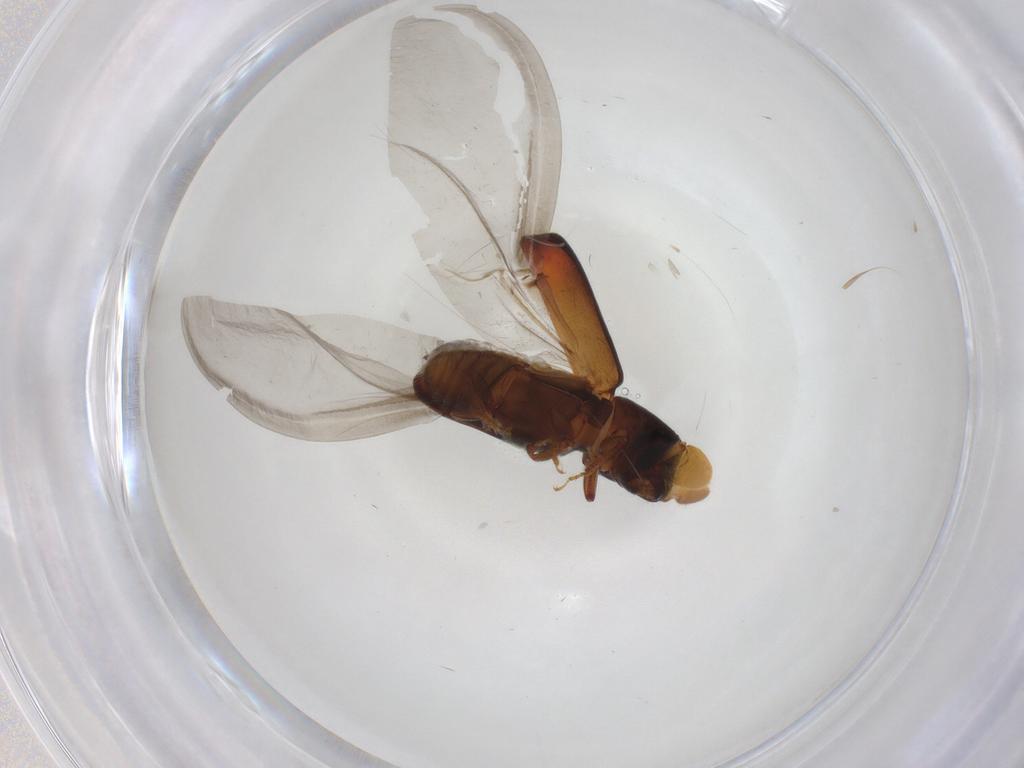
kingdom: Animalia
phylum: Arthropoda
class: Insecta
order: Coleoptera
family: Curculionidae
